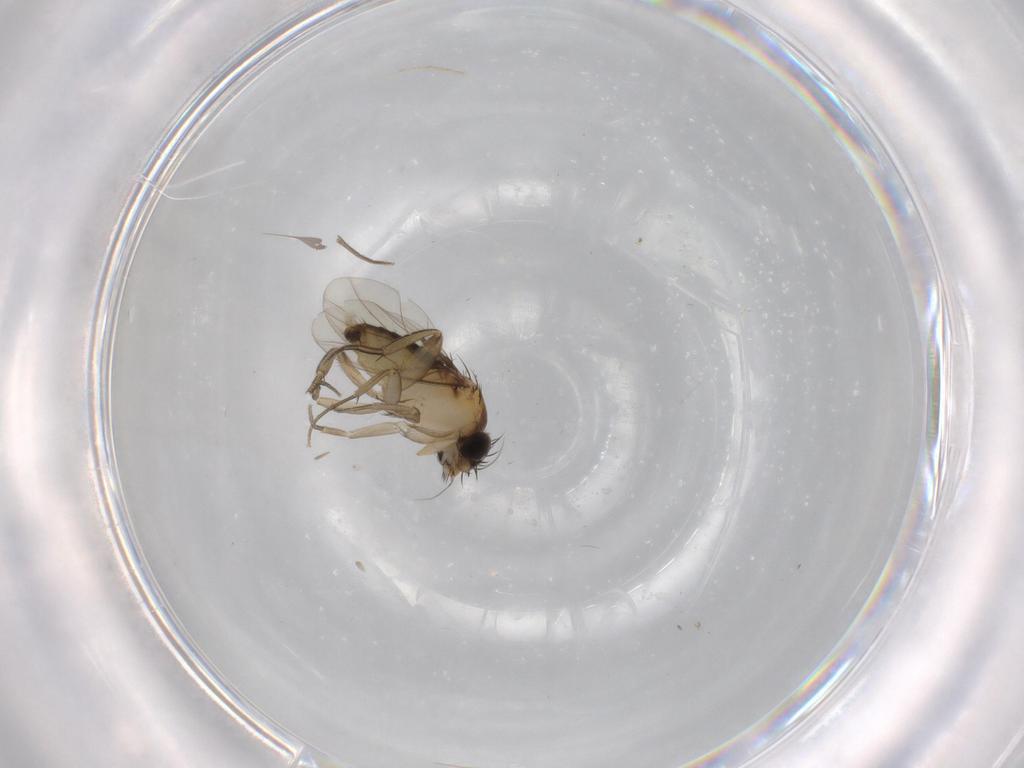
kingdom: Animalia
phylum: Arthropoda
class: Insecta
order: Diptera
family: Phoridae
